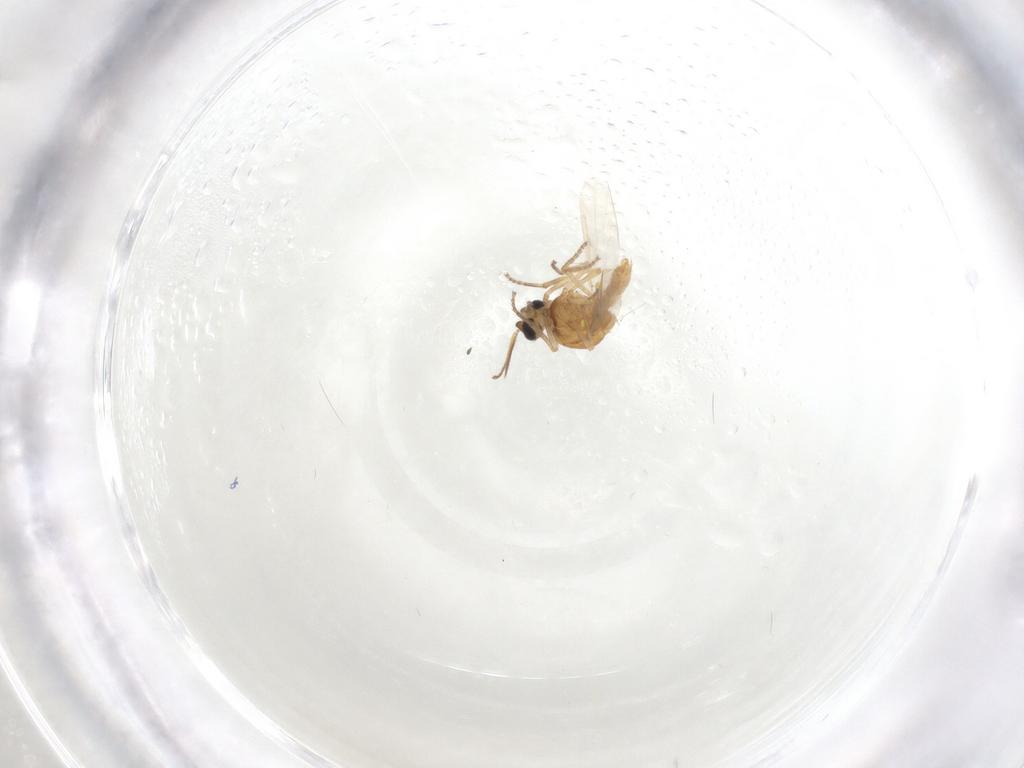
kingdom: Animalia
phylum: Arthropoda
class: Insecta
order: Diptera
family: Ceratopogonidae
